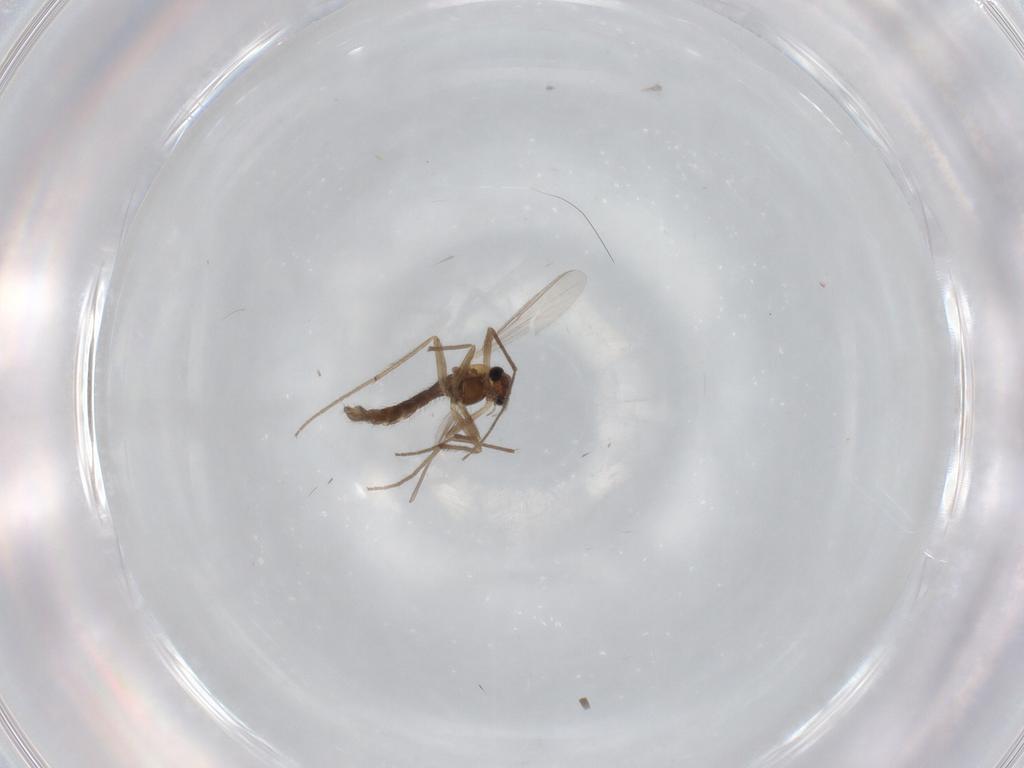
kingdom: Animalia
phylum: Arthropoda
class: Insecta
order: Diptera
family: Chironomidae
